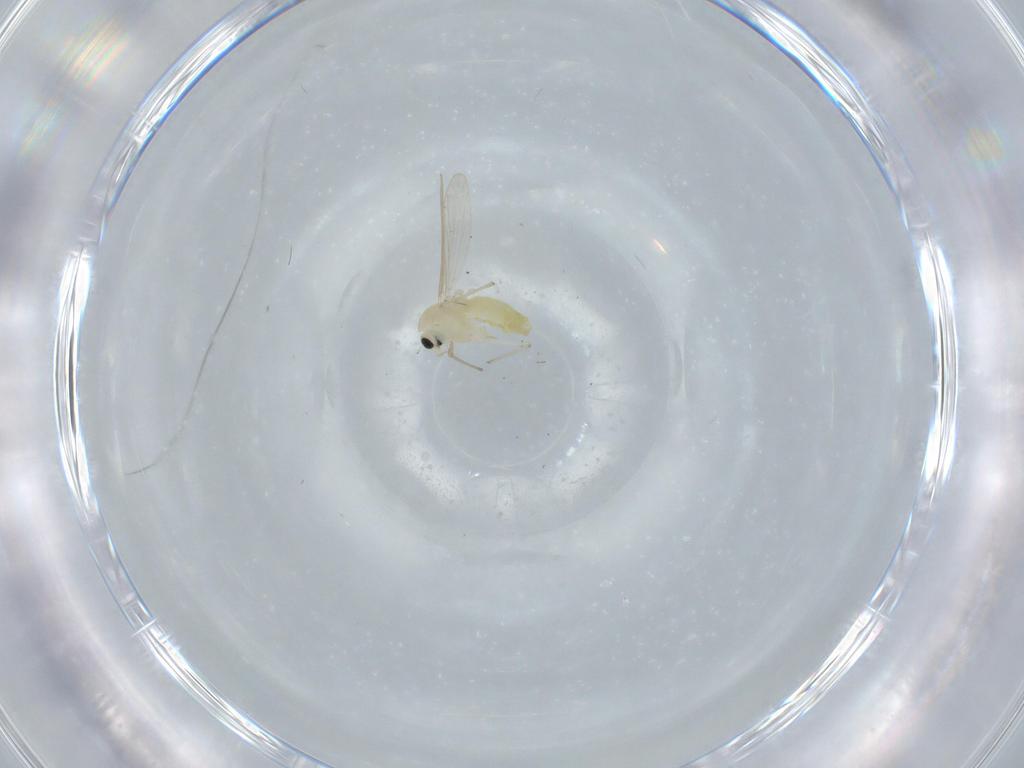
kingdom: Animalia
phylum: Arthropoda
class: Insecta
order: Diptera
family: Chironomidae
